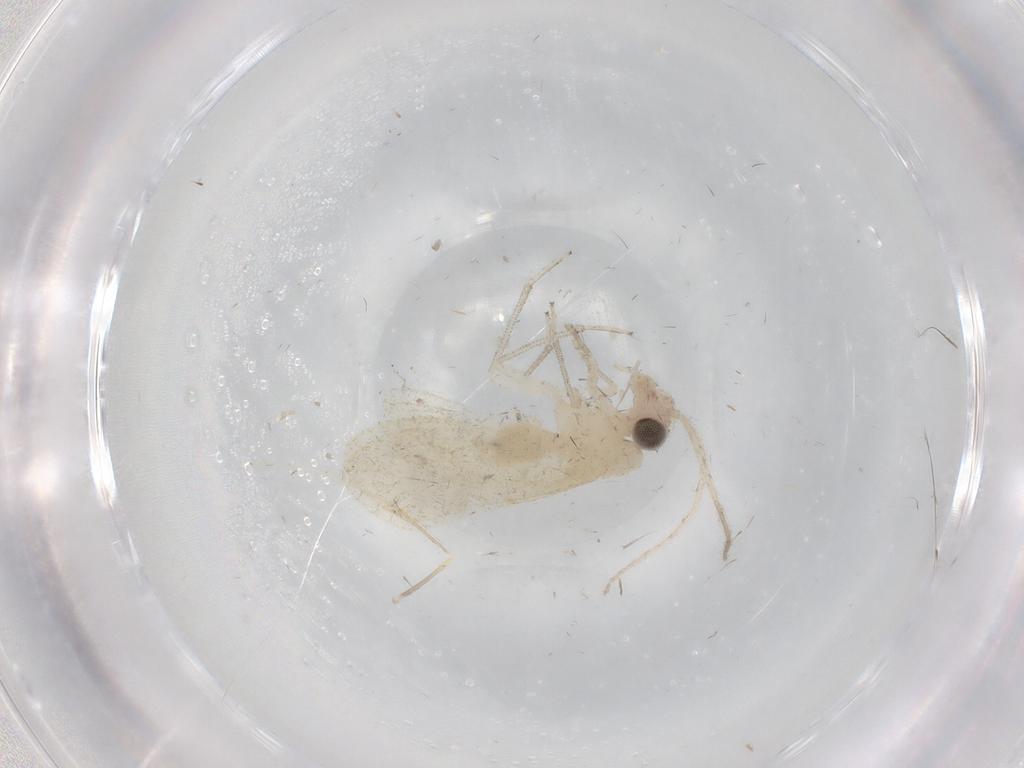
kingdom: Animalia
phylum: Arthropoda
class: Insecta
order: Psocodea
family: Caeciliusidae
